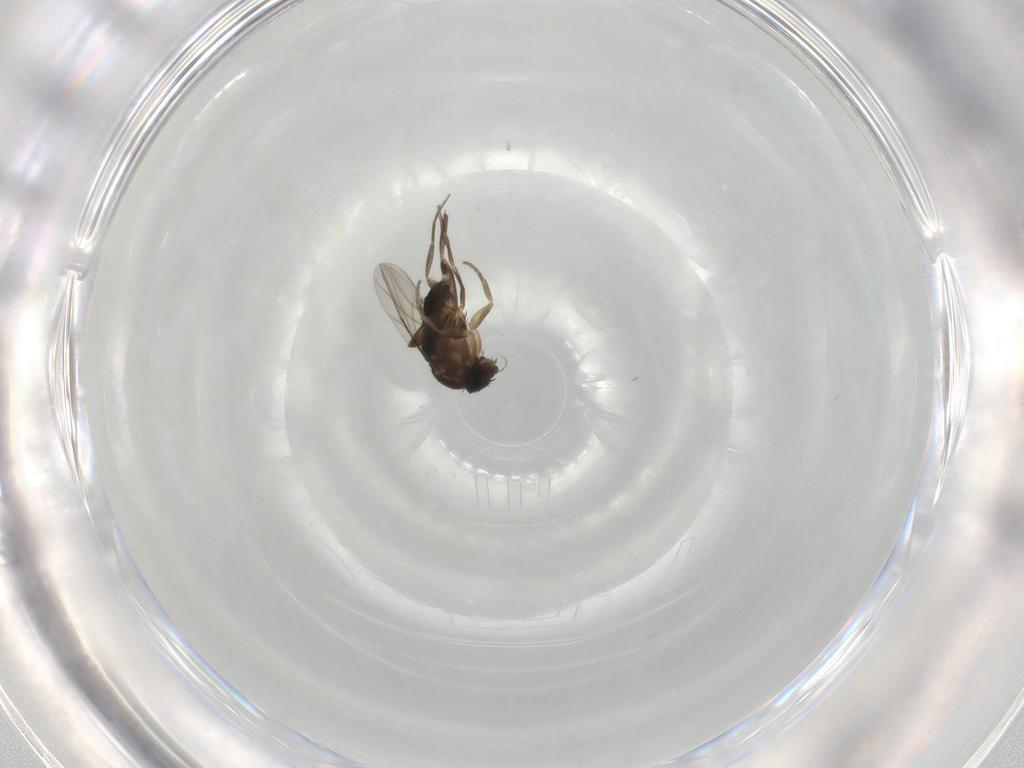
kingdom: Animalia
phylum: Arthropoda
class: Insecta
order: Diptera
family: Phoridae
